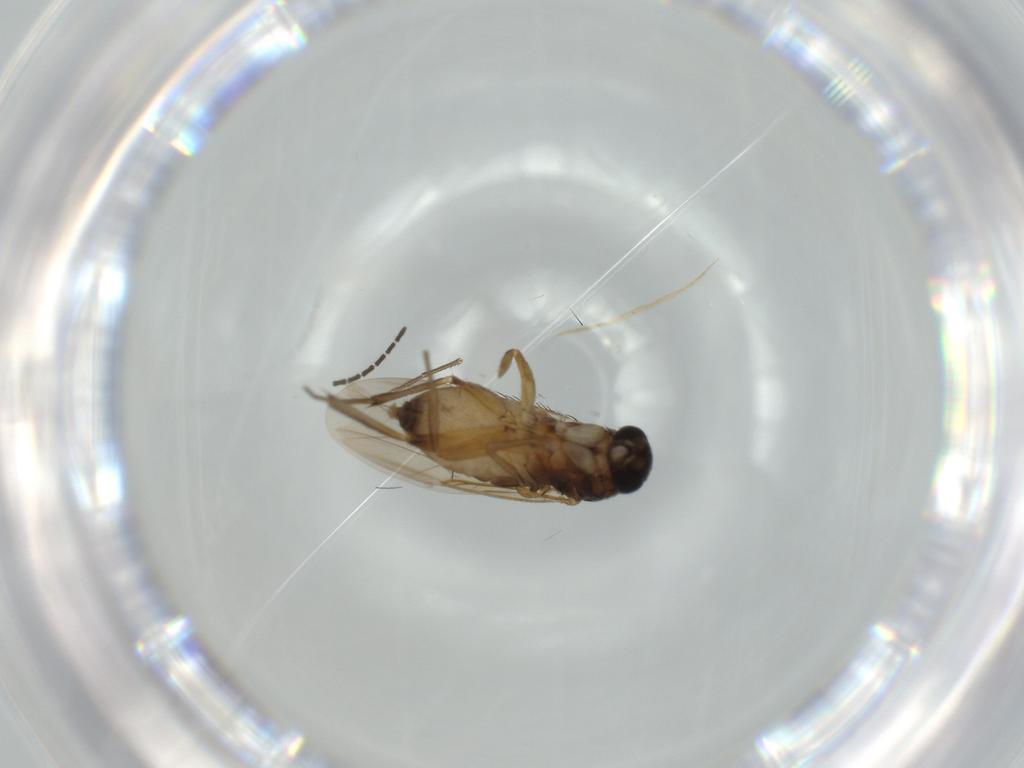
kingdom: Animalia
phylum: Arthropoda
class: Insecta
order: Diptera
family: Phoridae
